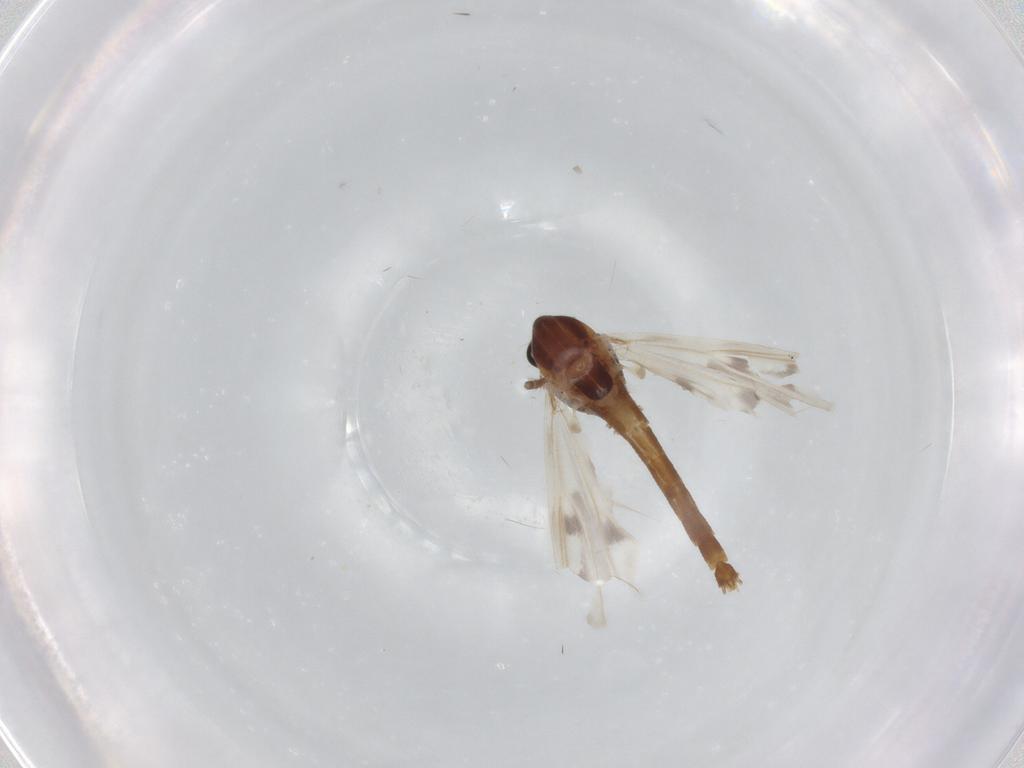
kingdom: Animalia
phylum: Arthropoda
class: Insecta
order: Diptera
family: Chironomidae
